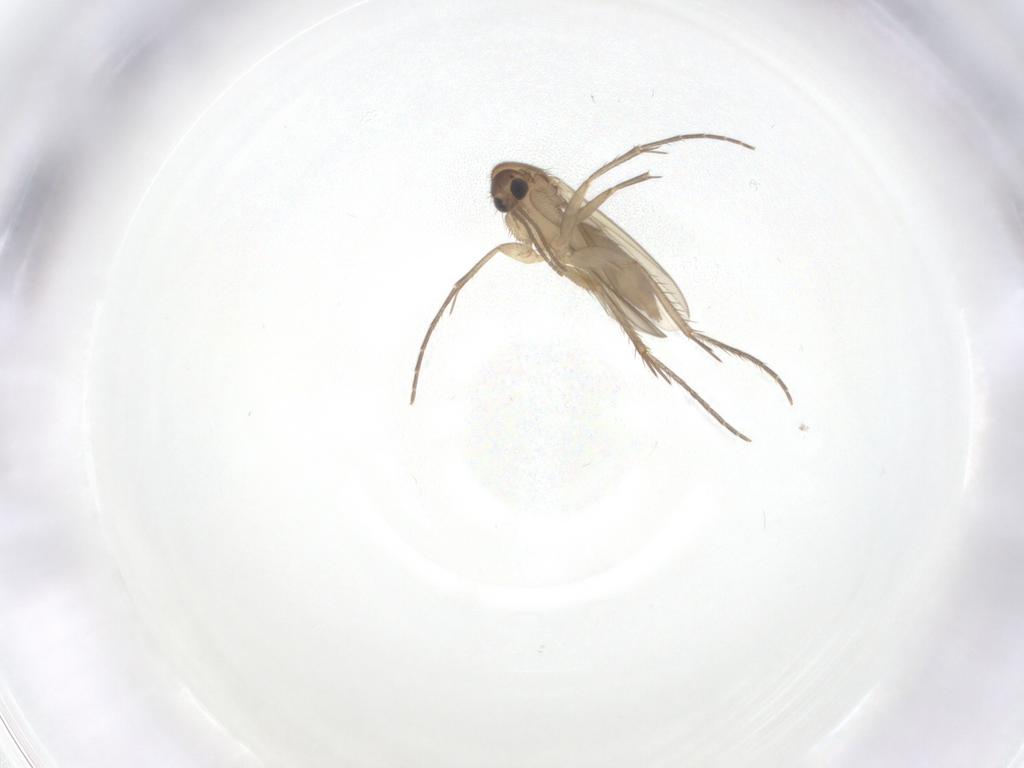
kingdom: Animalia
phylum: Arthropoda
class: Insecta
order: Diptera
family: Mycetophilidae
